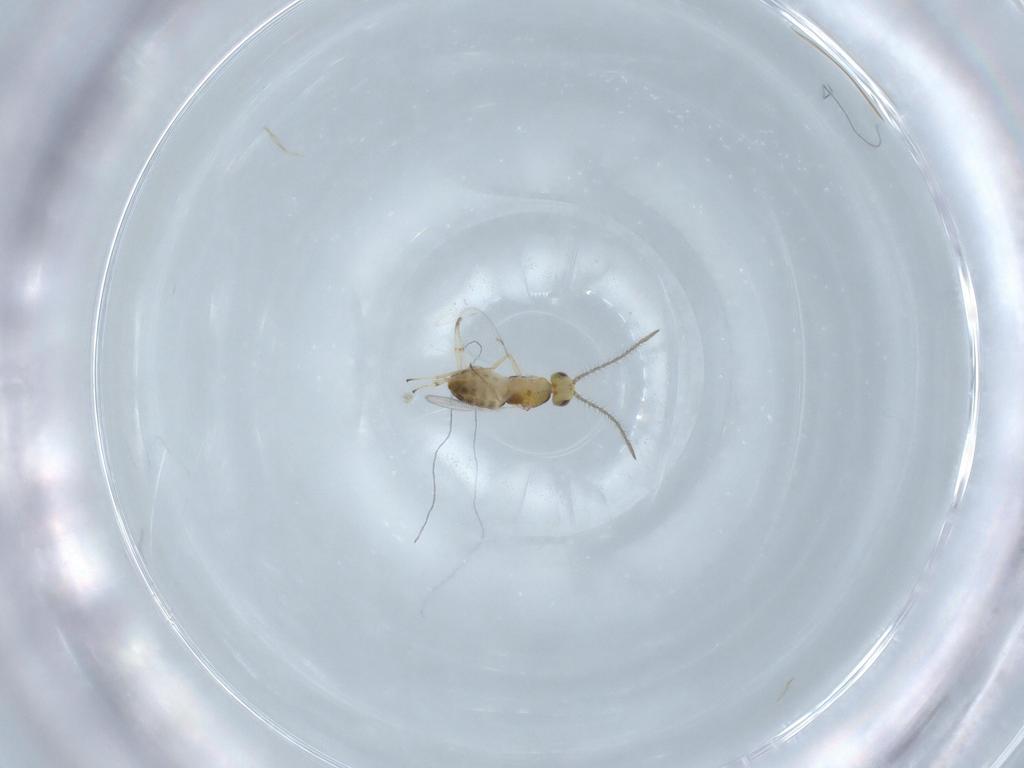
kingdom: Animalia
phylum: Arthropoda
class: Insecta
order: Hymenoptera
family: Encyrtidae
